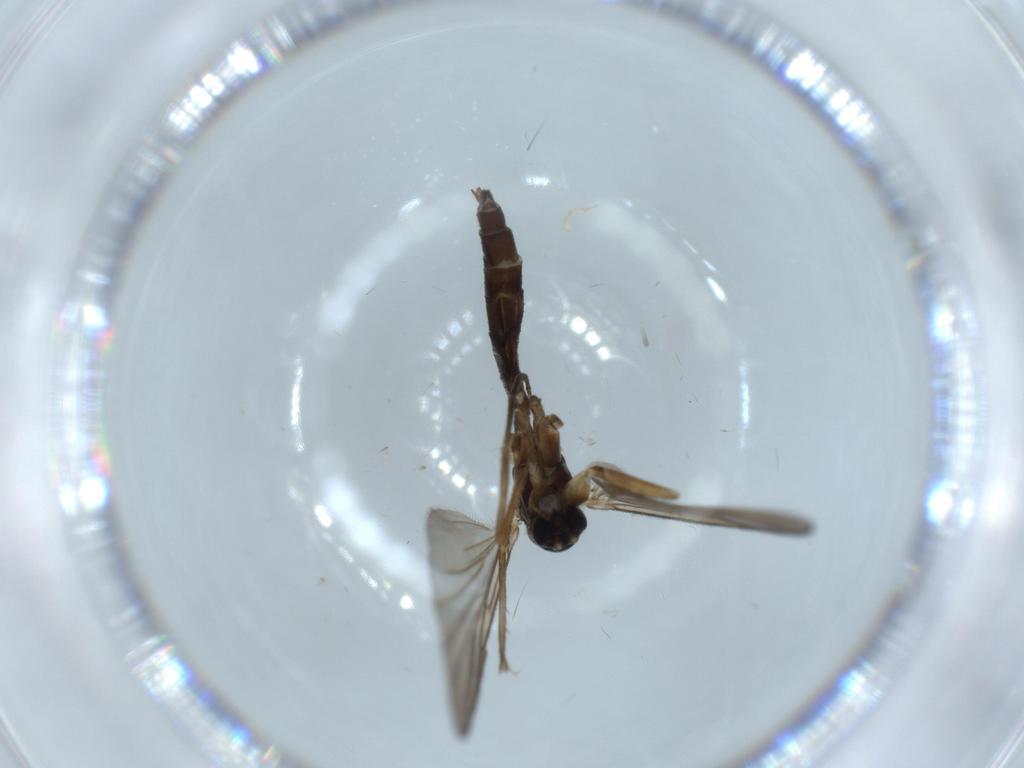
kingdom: Animalia
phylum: Arthropoda
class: Insecta
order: Diptera
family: Mycetophilidae
